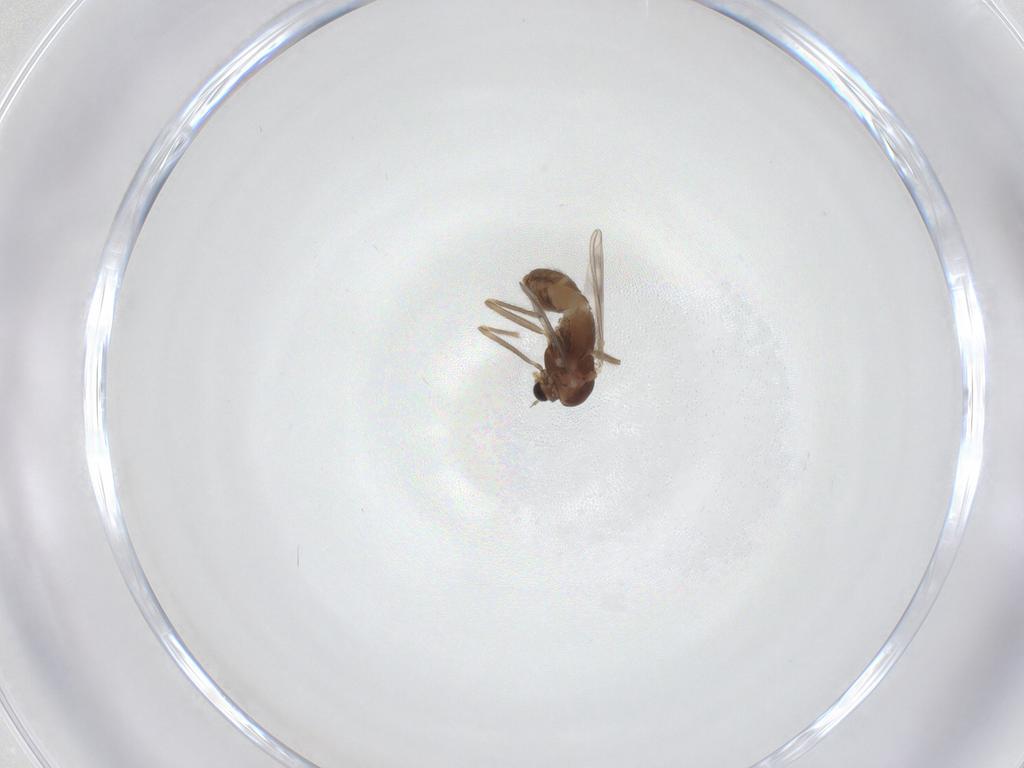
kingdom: Animalia
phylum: Arthropoda
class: Insecta
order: Diptera
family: Chironomidae
